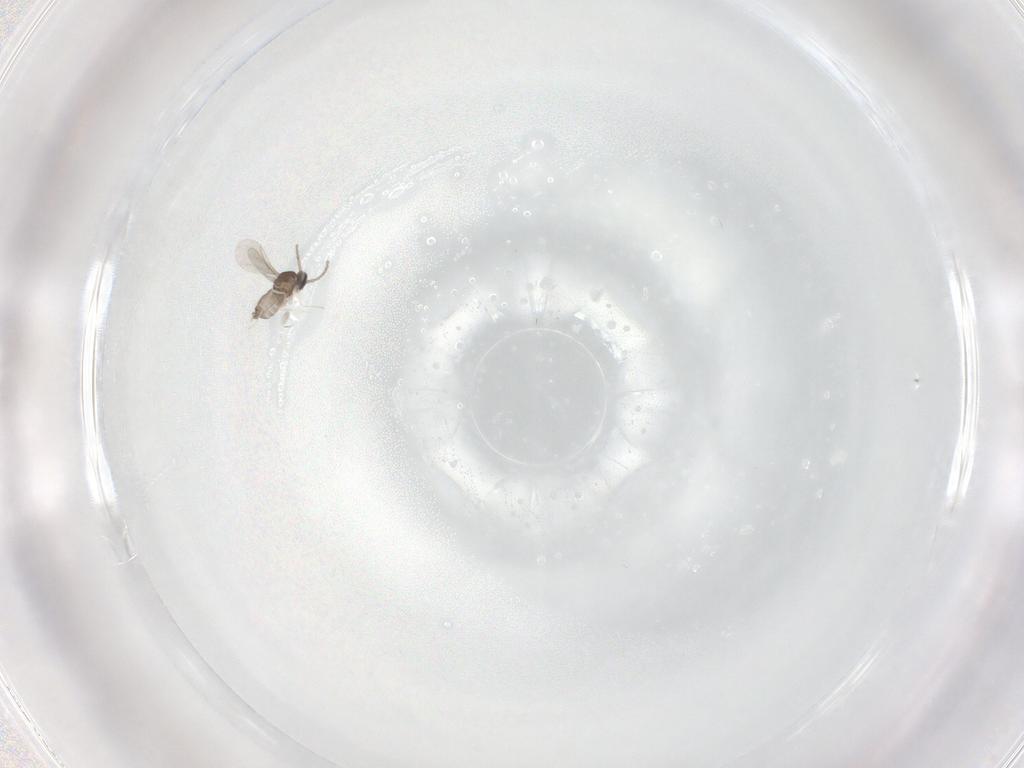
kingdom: Animalia
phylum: Arthropoda
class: Insecta
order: Diptera
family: Cecidomyiidae
